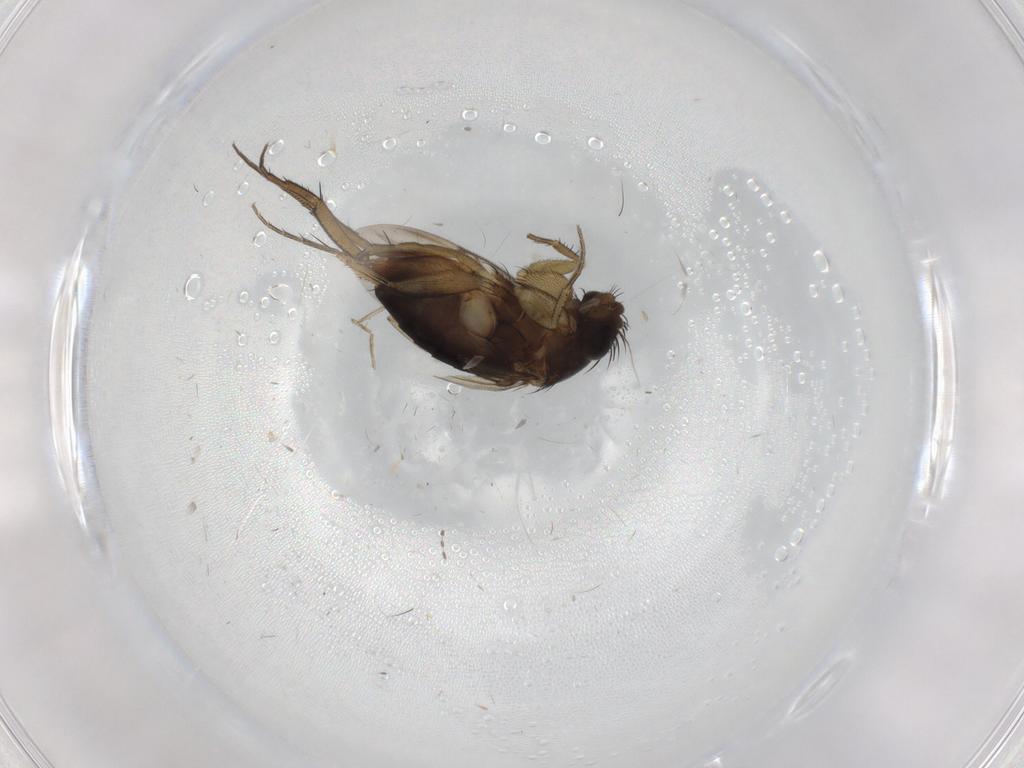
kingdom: Animalia
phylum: Arthropoda
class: Insecta
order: Diptera
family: Phoridae
